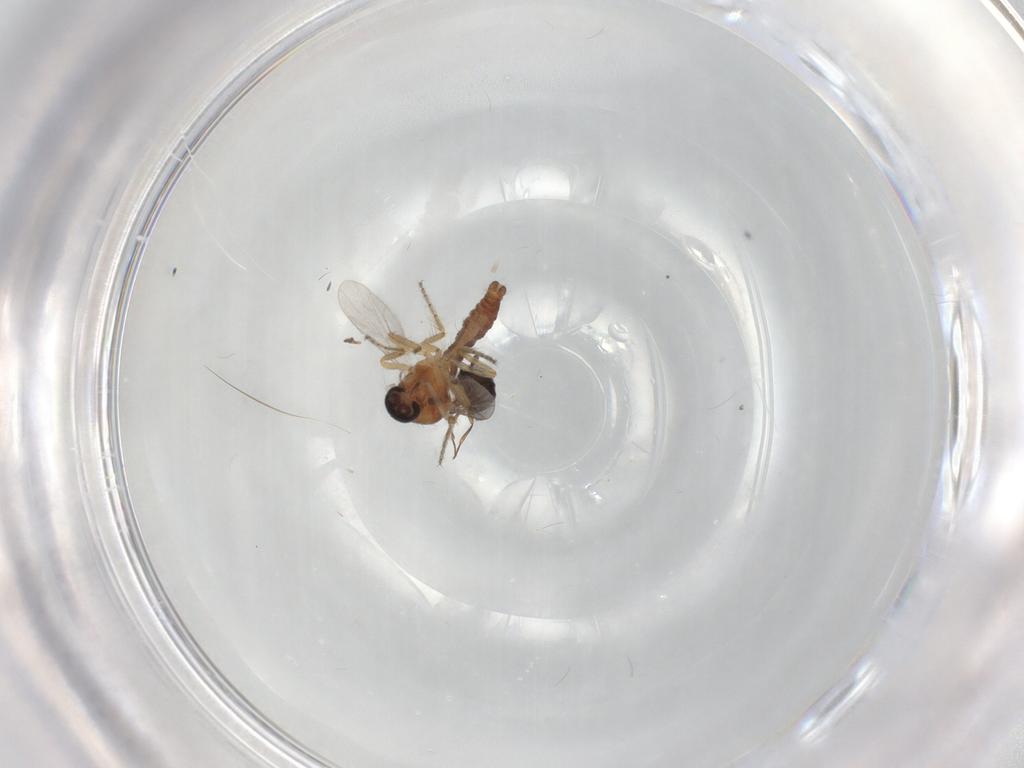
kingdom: Animalia
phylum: Arthropoda
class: Insecta
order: Diptera
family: Ceratopogonidae
